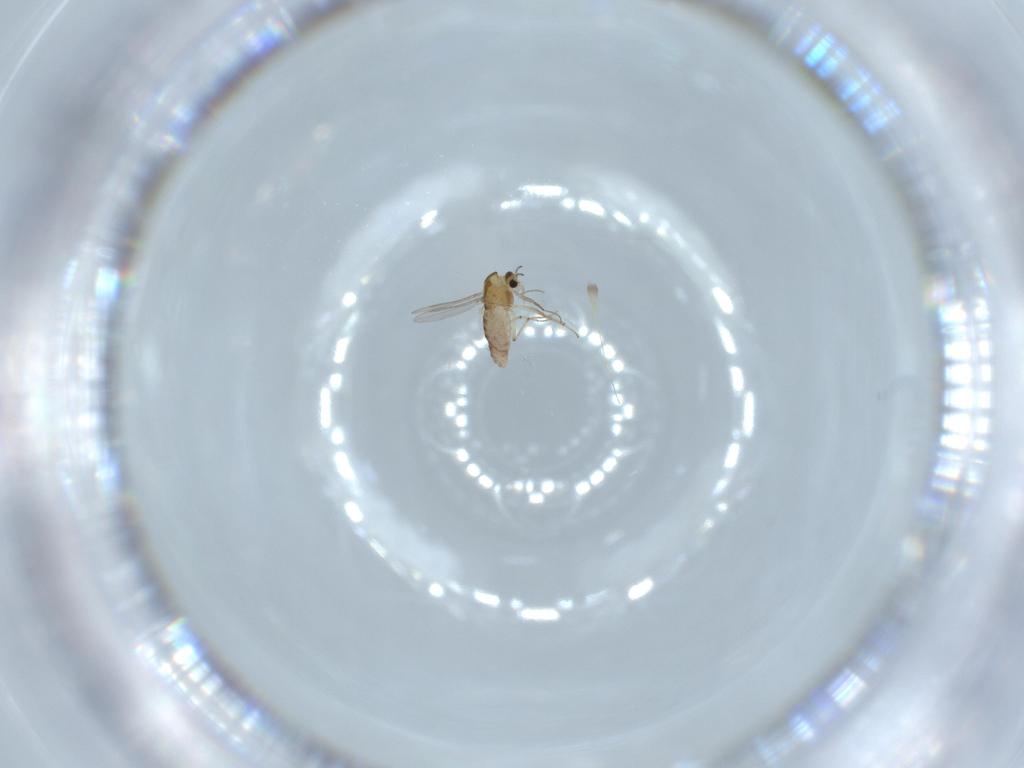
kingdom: Animalia
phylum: Arthropoda
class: Insecta
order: Diptera
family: Chironomidae
